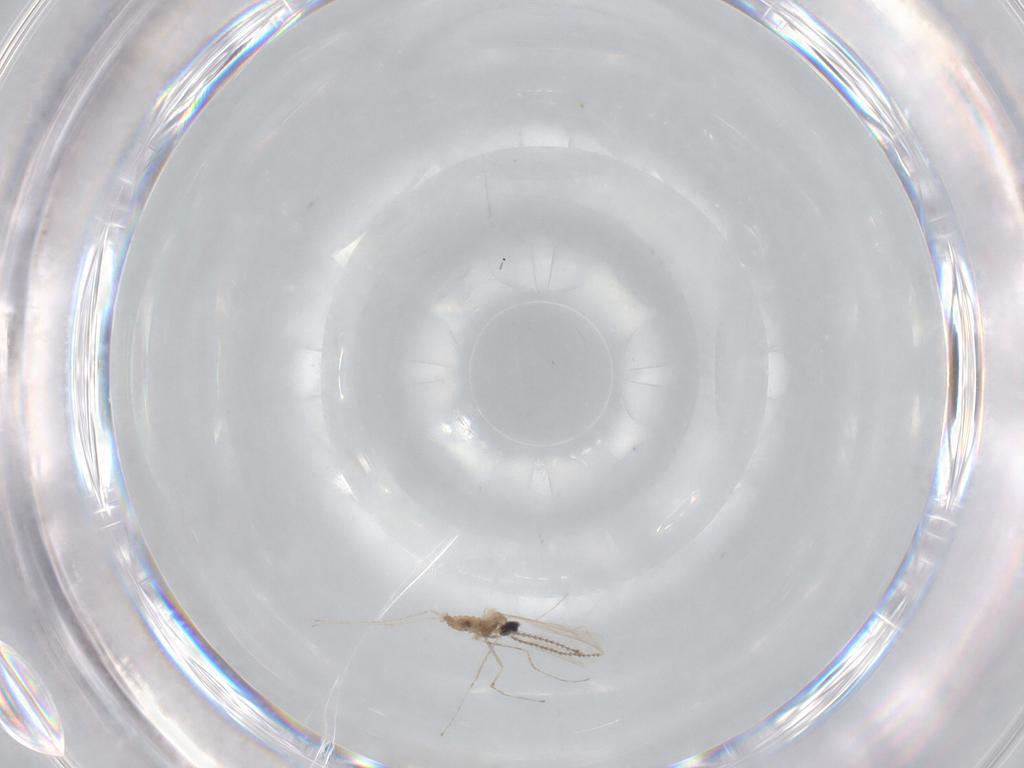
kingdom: Animalia
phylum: Arthropoda
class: Insecta
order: Diptera
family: Cecidomyiidae
